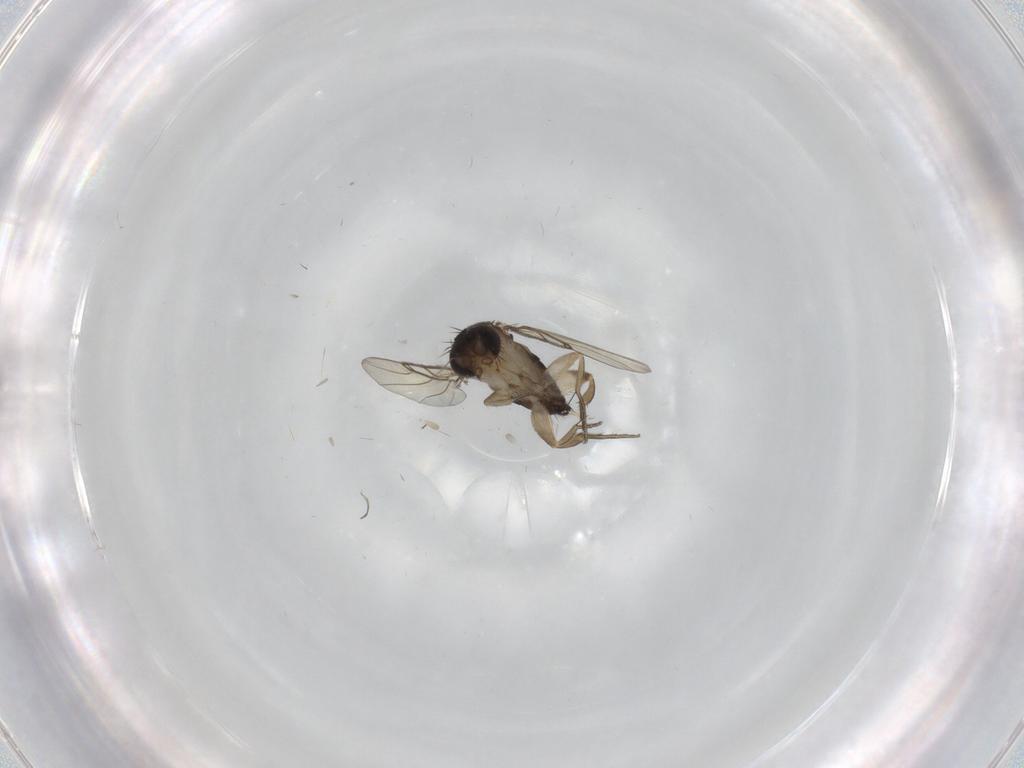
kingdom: Animalia
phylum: Arthropoda
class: Insecta
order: Diptera
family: Phoridae
